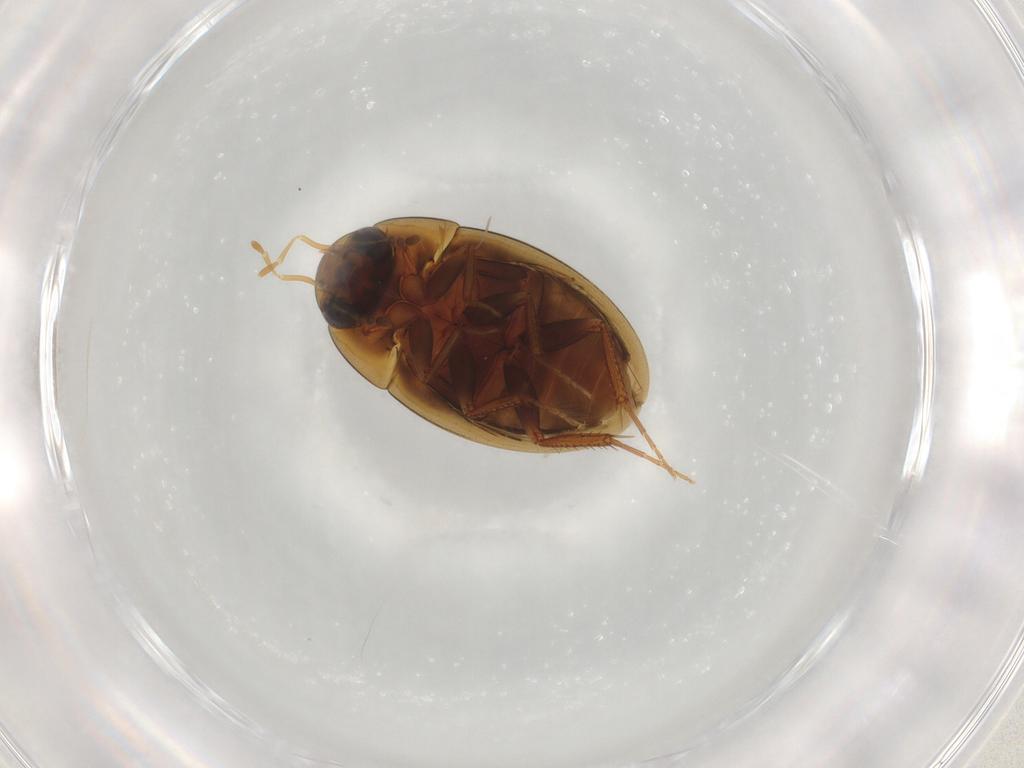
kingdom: Animalia
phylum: Arthropoda
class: Insecta
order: Coleoptera
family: Hydrophilidae
